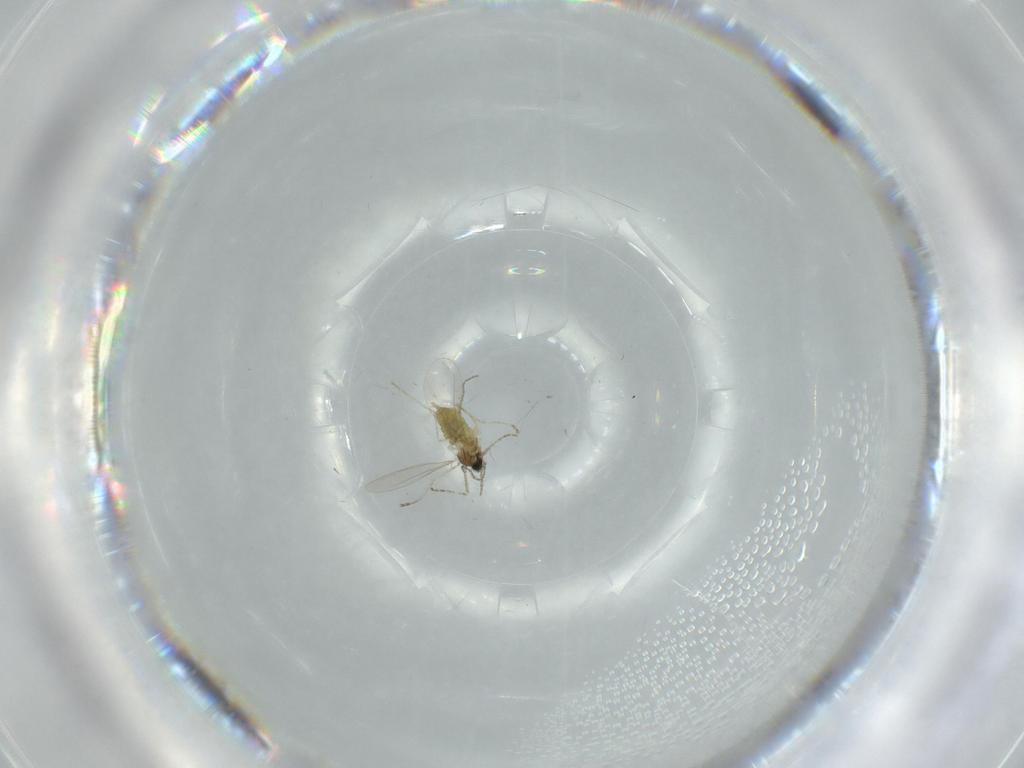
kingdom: Animalia
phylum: Arthropoda
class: Insecta
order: Diptera
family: Cecidomyiidae
